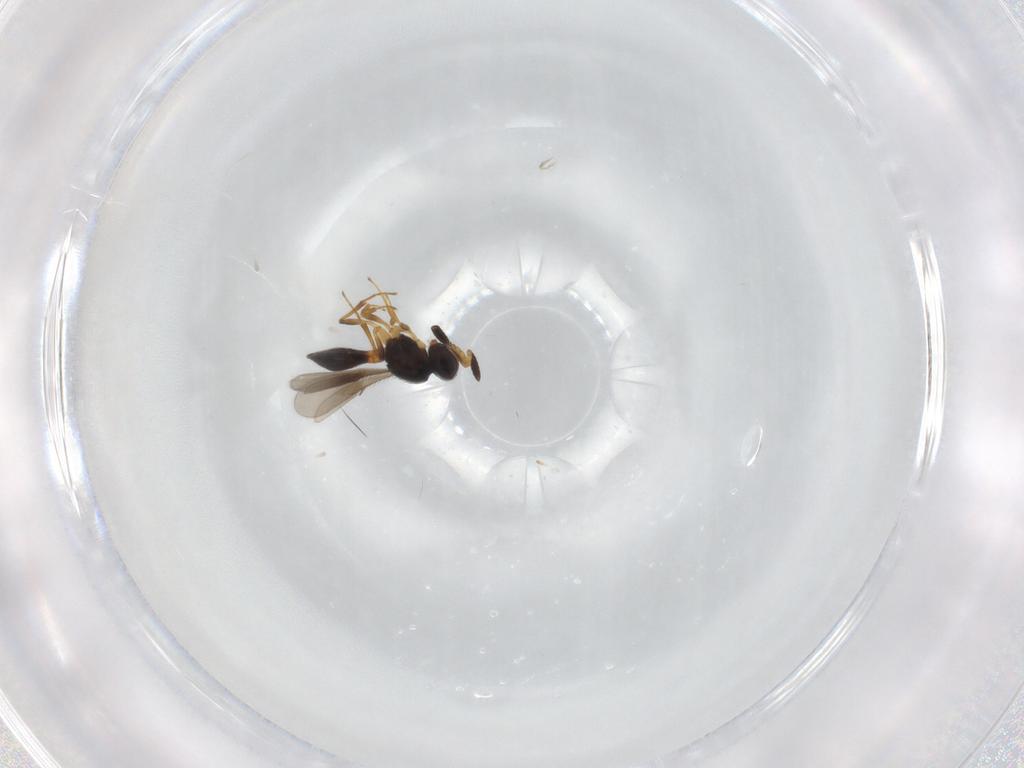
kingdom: Animalia
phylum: Arthropoda
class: Insecta
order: Hymenoptera
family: Scelionidae
